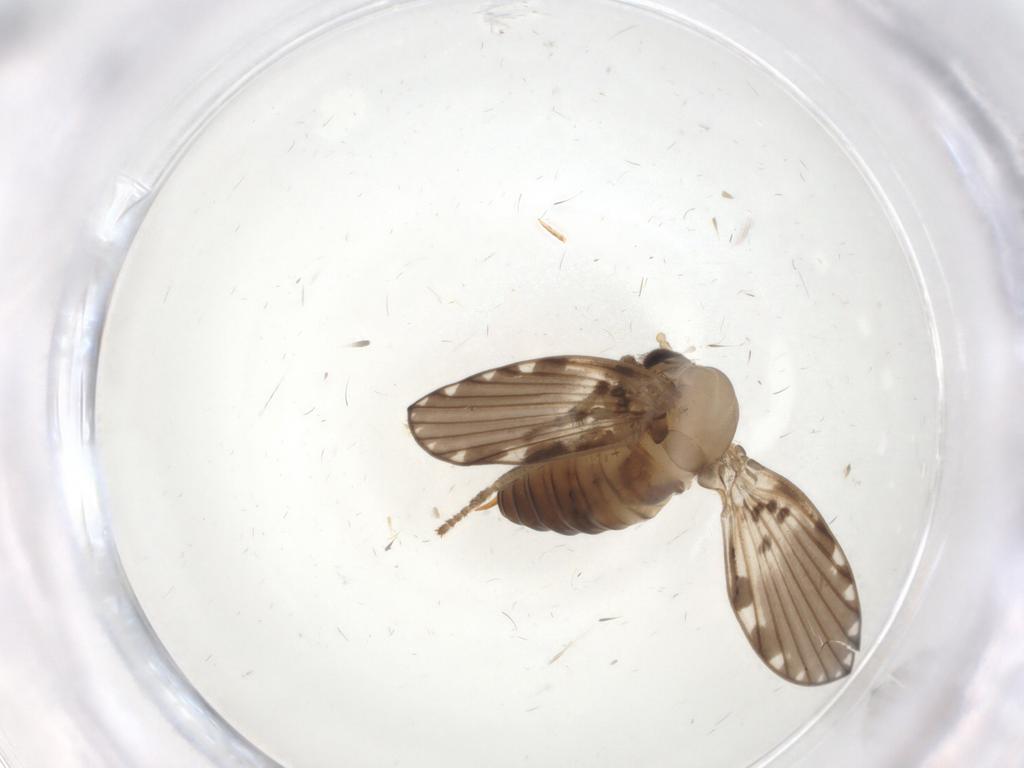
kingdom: Animalia
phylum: Arthropoda
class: Insecta
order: Diptera
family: Psychodidae
